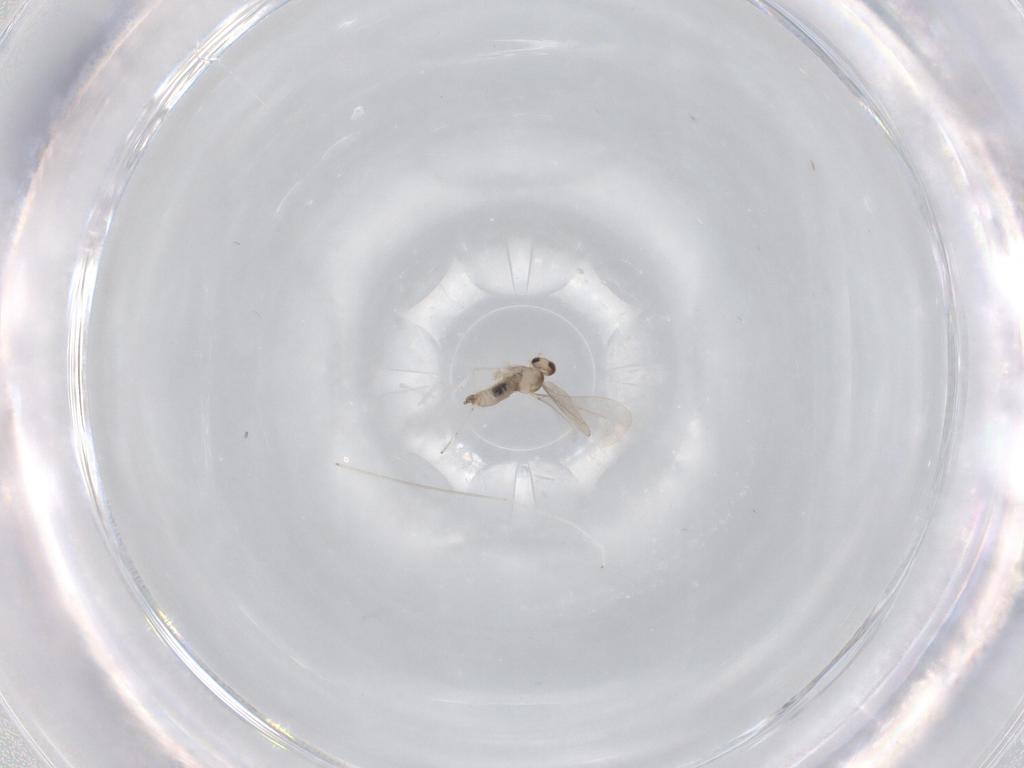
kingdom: Animalia
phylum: Arthropoda
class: Insecta
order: Diptera
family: Cecidomyiidae
